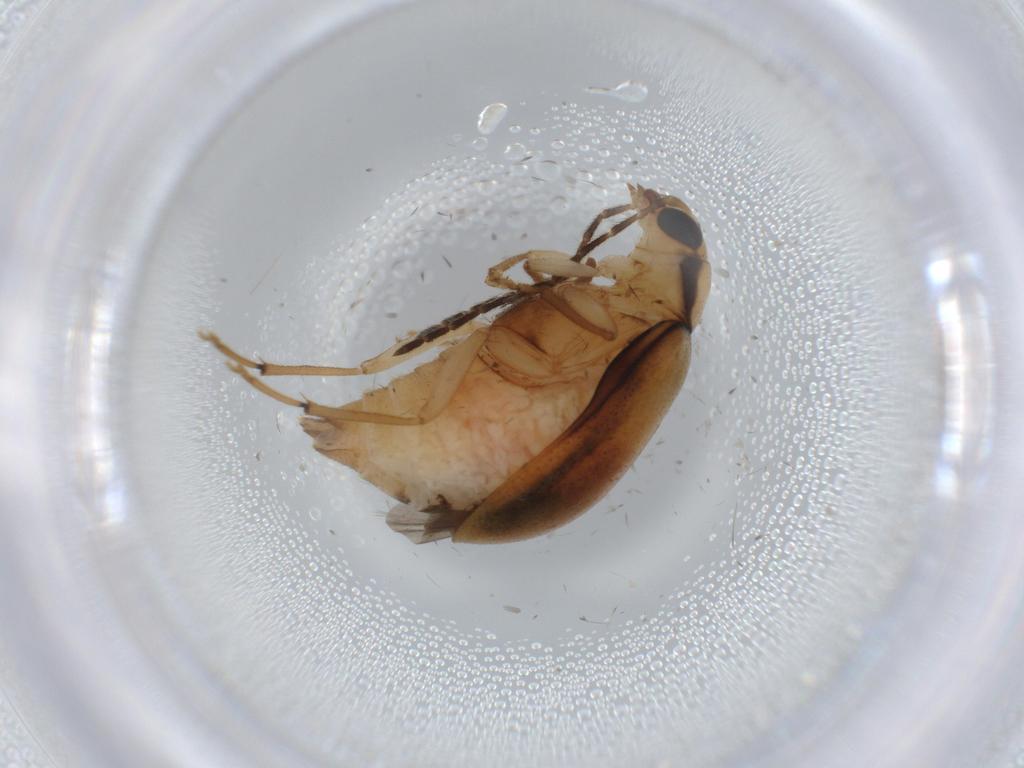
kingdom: Animalia
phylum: Arthropoda
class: Insecta
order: Coleoptera
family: Chrysomelidae
